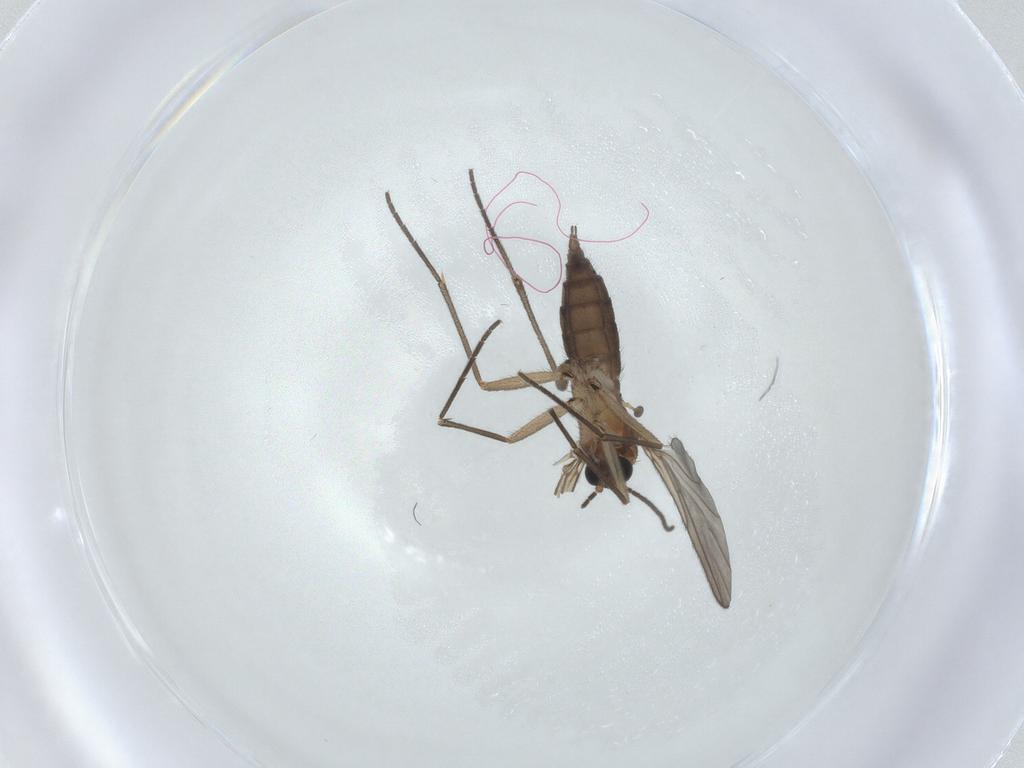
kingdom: Animalia
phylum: Arthropoda
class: Insecta
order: Diptera
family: Sciaridae
